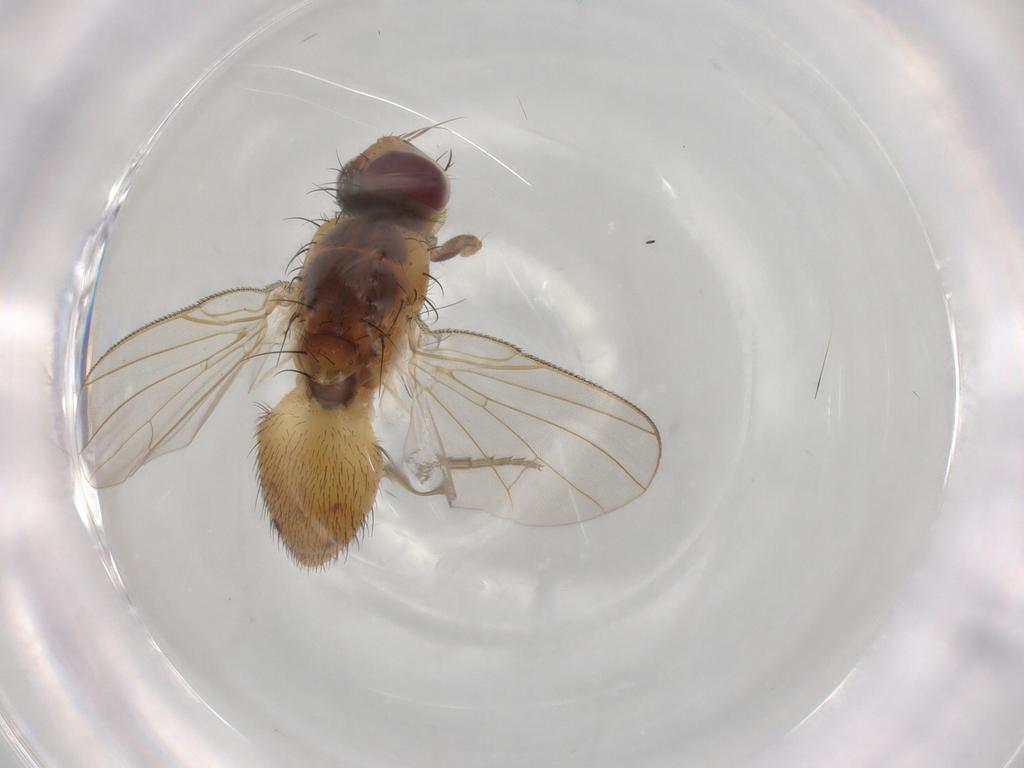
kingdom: Animalia
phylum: Arthropoda
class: Insecta
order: Diptera
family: Muscidae
